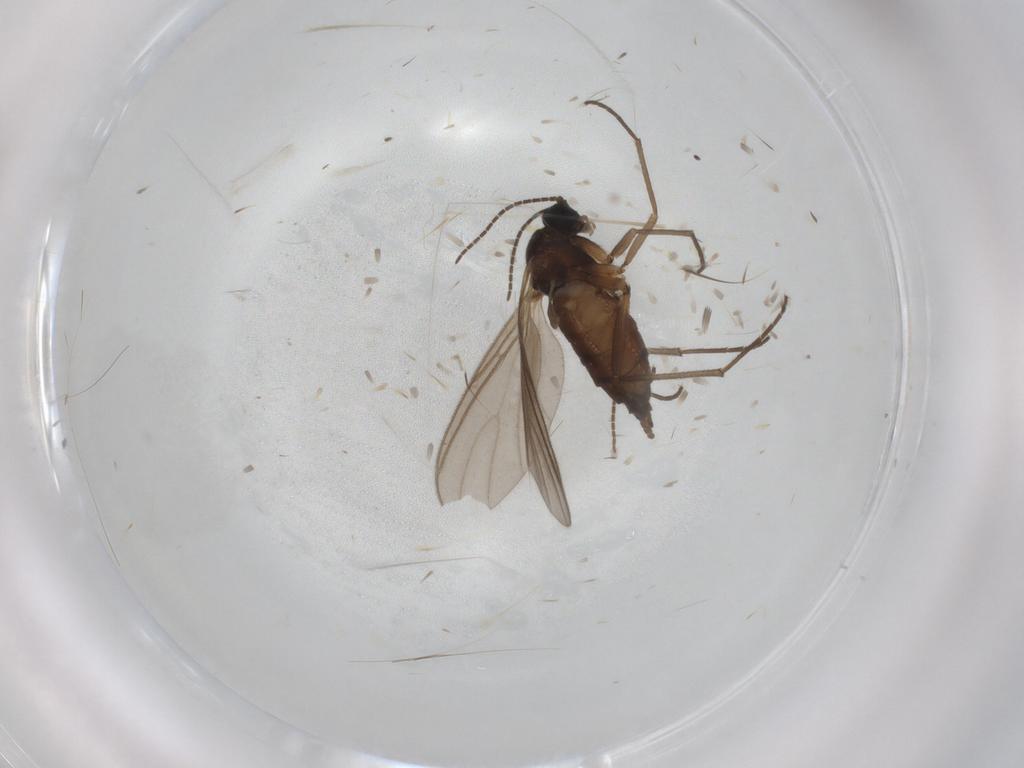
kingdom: Animalia
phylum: Arthropoda
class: Insecta
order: Diptera
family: Sciaridae
